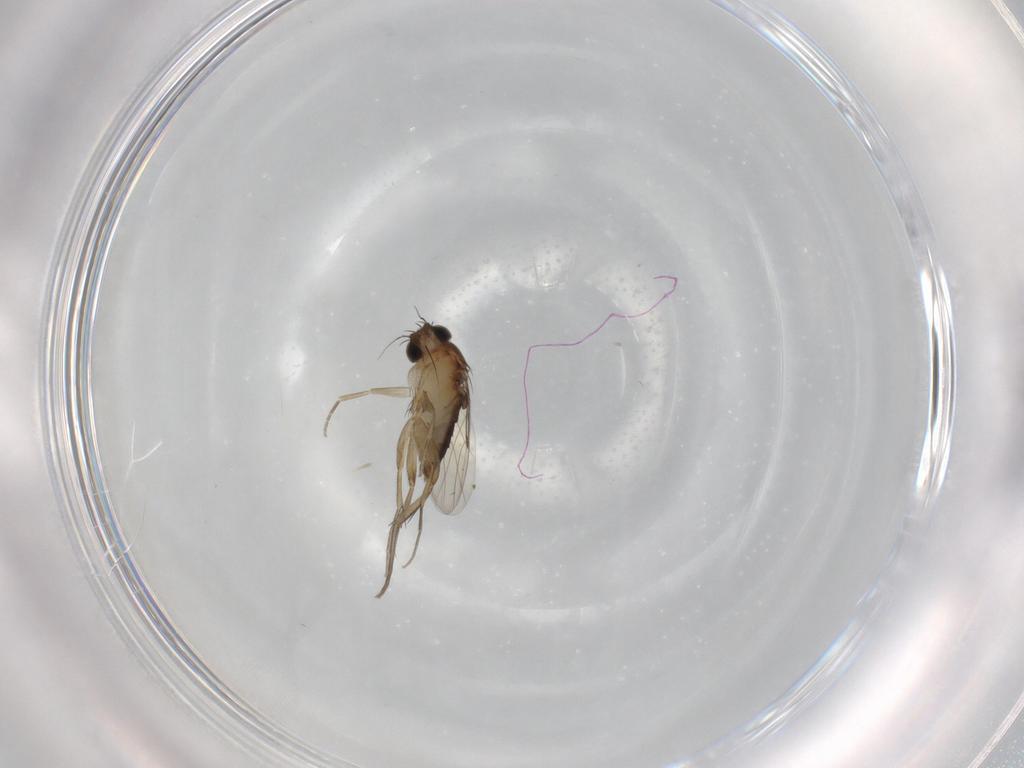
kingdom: Animalia
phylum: Arthropoda
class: Insecta
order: Diptera
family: Phoridae
